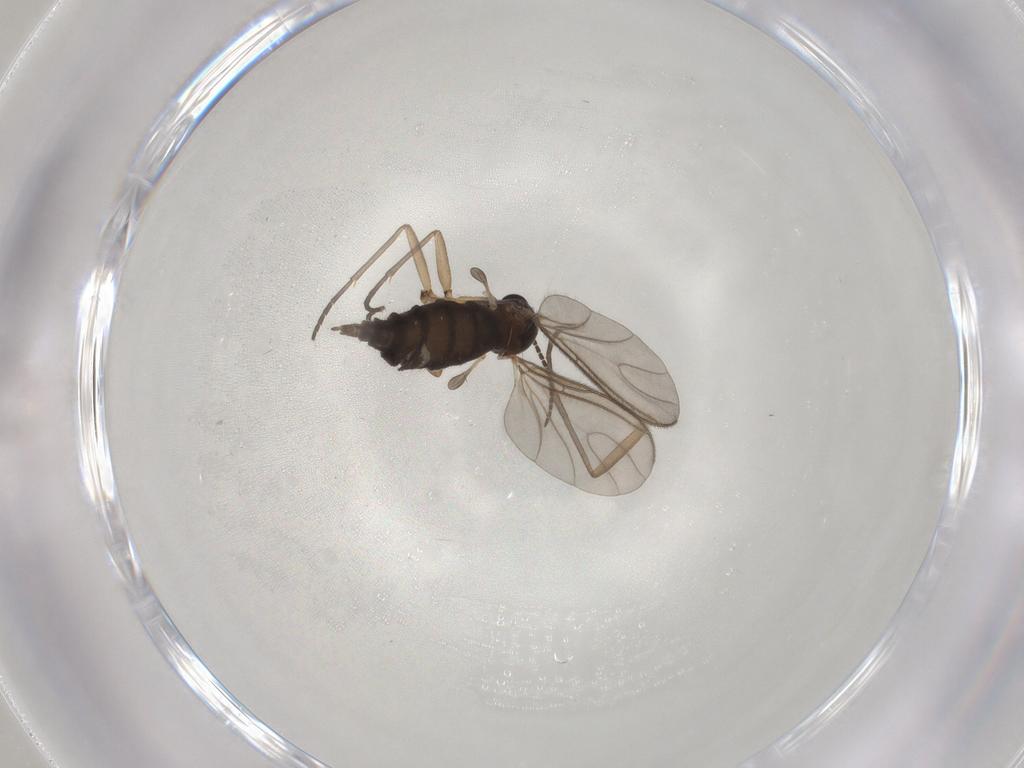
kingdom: Animalia
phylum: Arthropoda
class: Insecta
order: Diptera
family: Sciaridae
